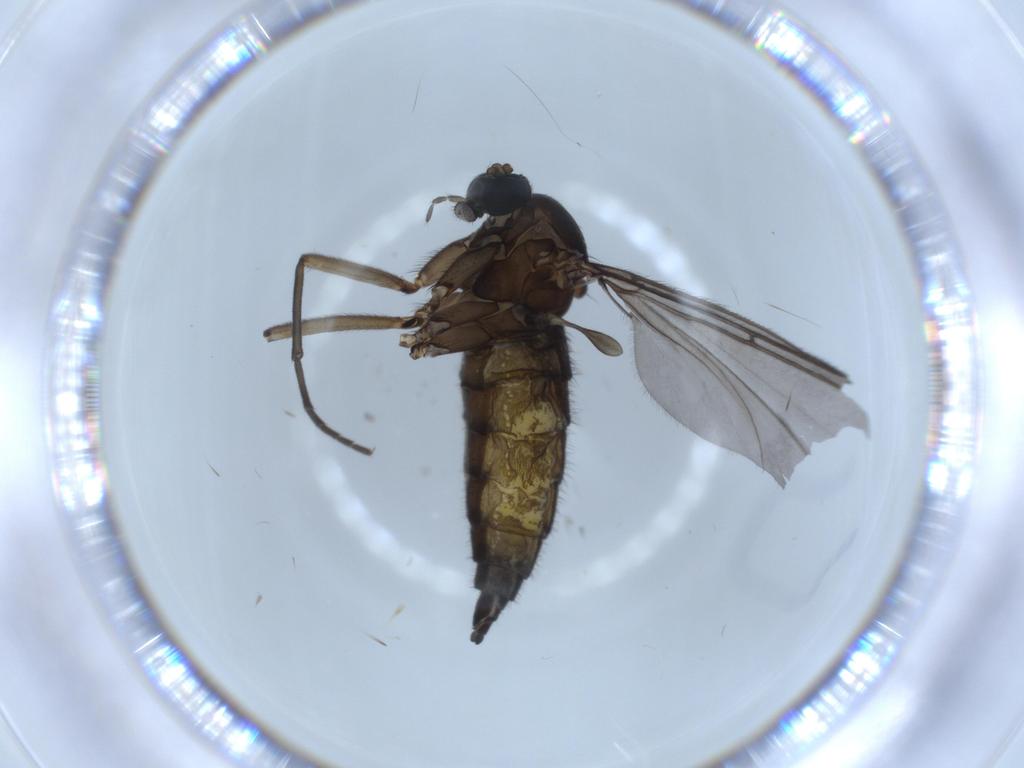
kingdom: Animalia
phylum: Arthropoda
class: Insecta
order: Diptera
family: Sciaridae
